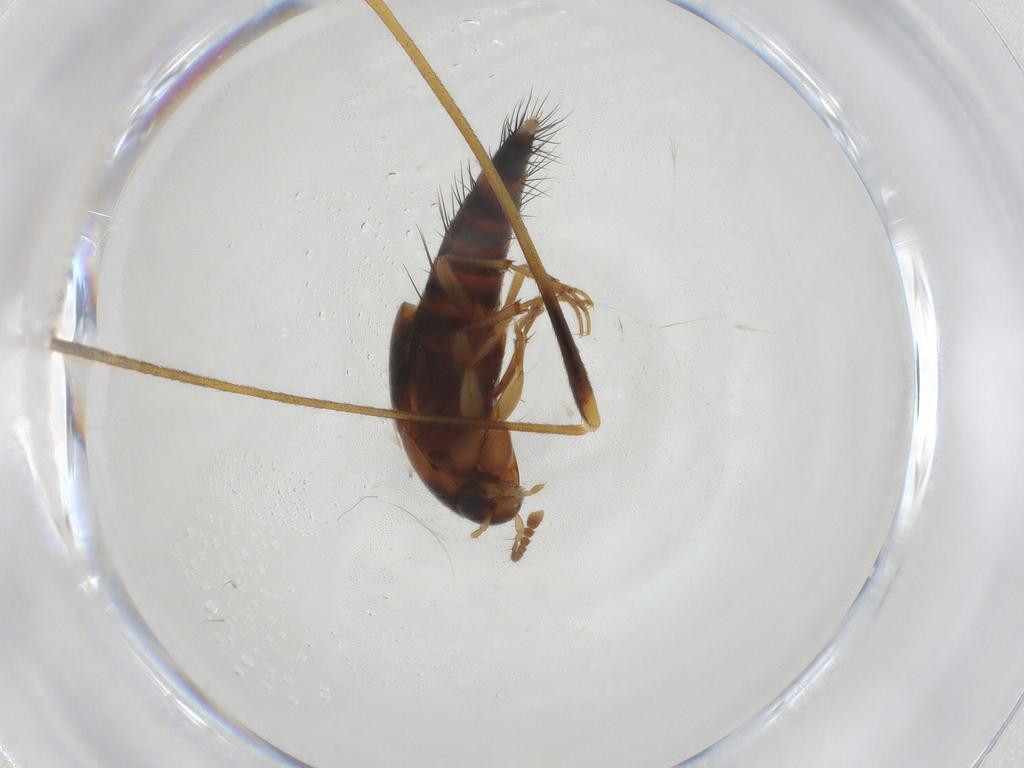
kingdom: Animalia
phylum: Arthropoda
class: Insecta
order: Coleoptera
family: Staphylinidae
